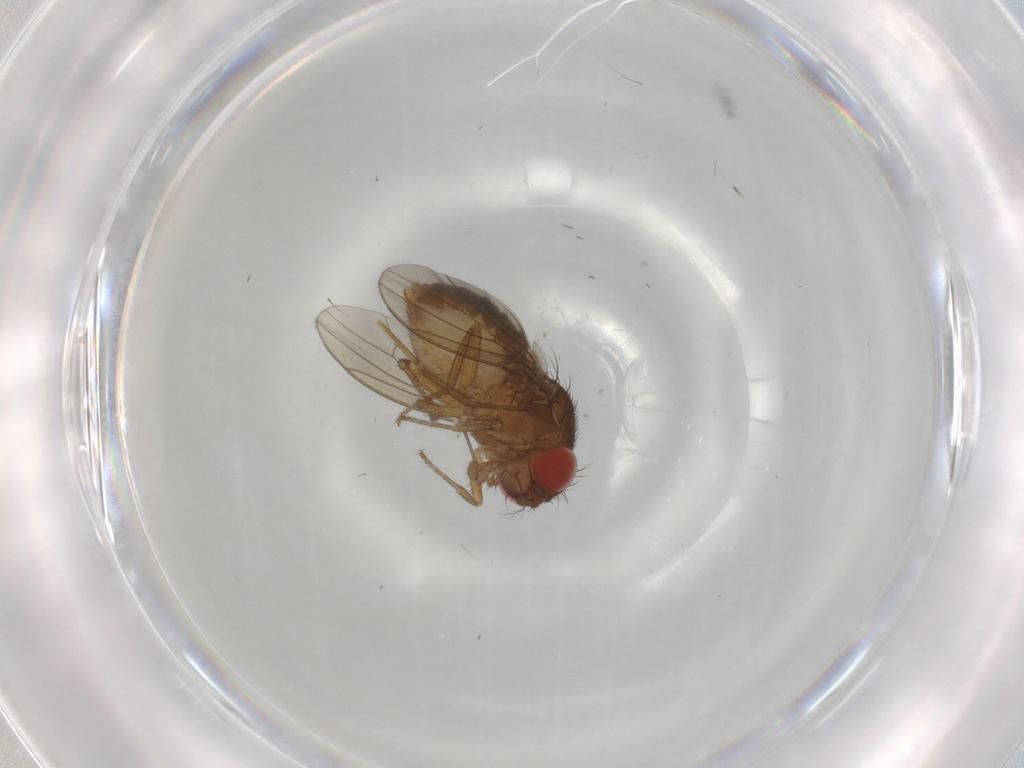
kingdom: Animalia
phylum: Arthropoda
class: Insecta
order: Diptera
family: Drosophilidae
